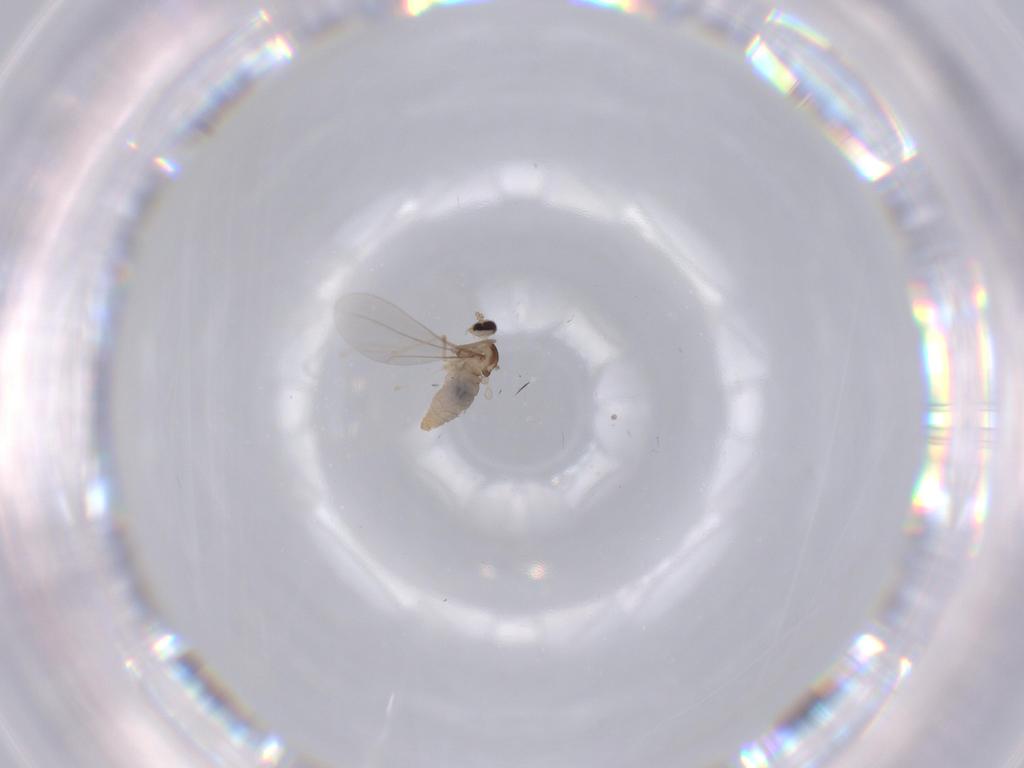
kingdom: Animalia
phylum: Arthropoda
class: Insecta
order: Diptera
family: Cecidomyiidae
